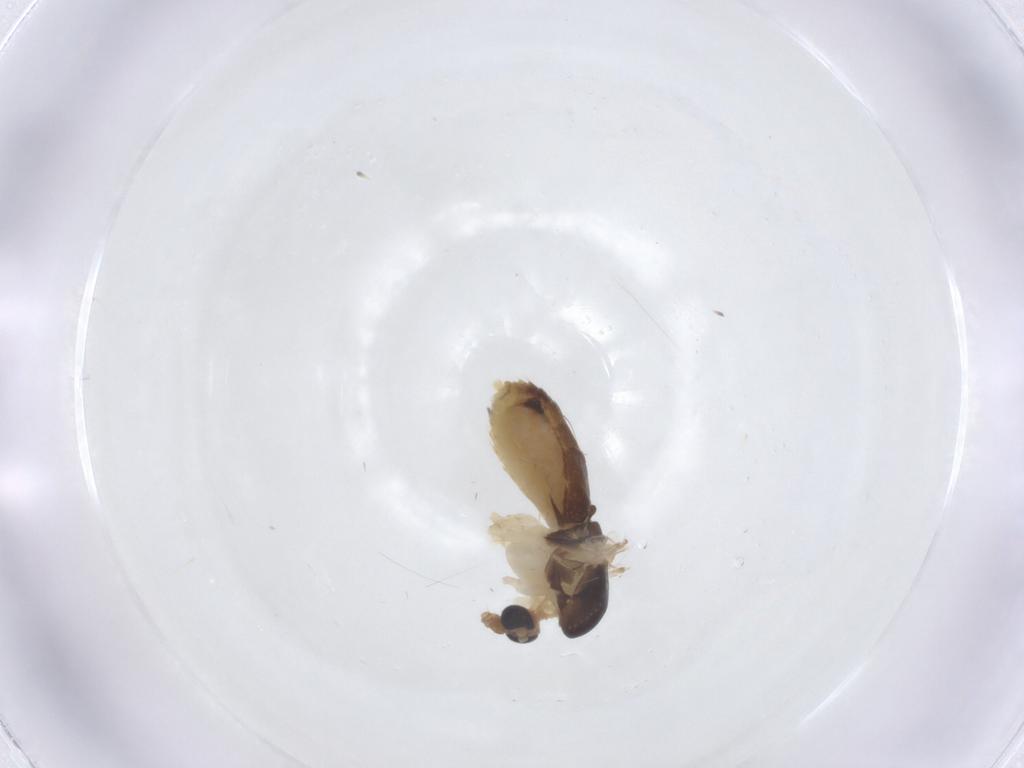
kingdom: Animalia
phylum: Arthropoda
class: Insecta
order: Diptera
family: Chironomidae
